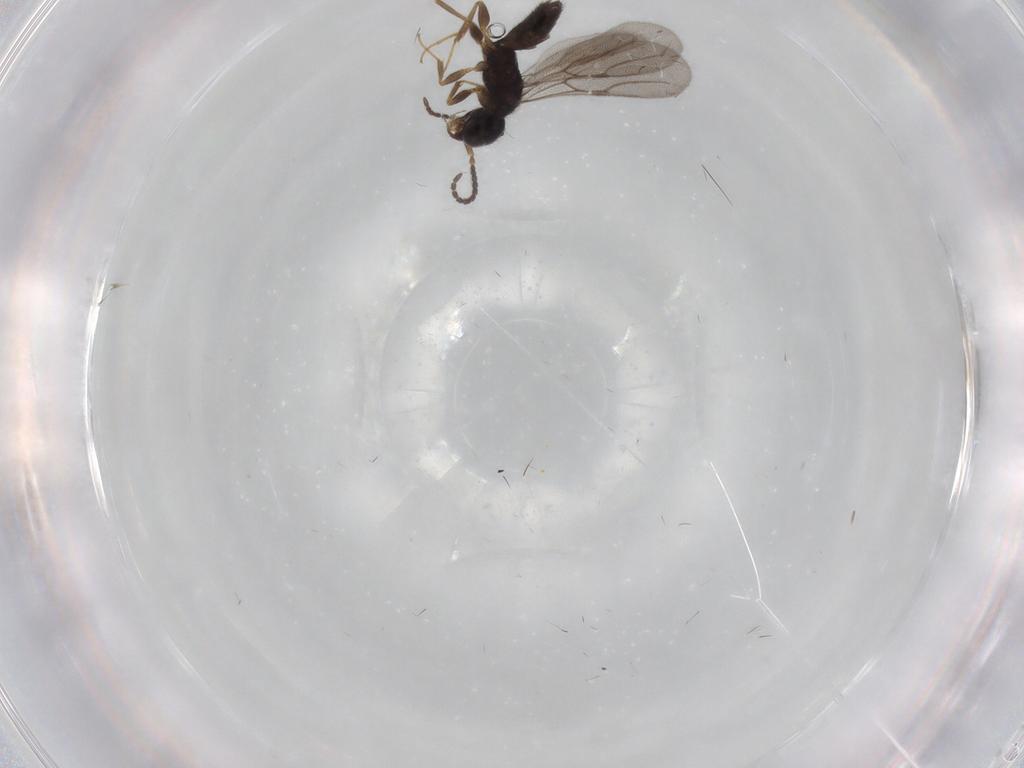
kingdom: Animalia
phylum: Arthropoda
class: Insecta
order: Hymenoptera
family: Bethylidae
